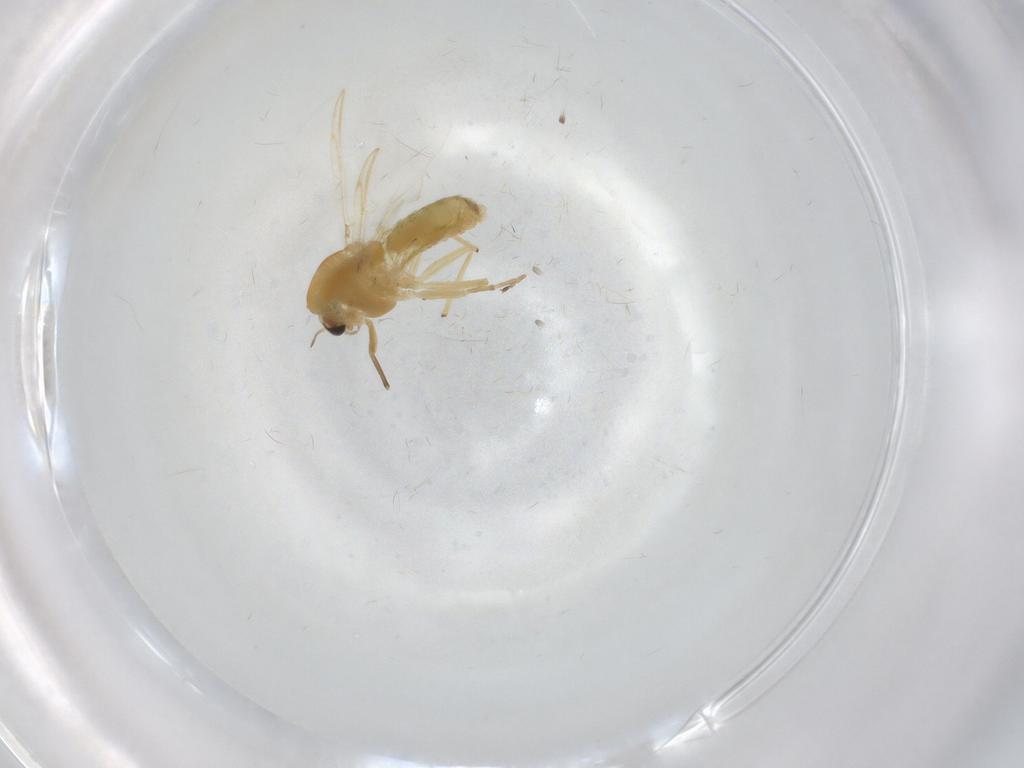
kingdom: Animalia
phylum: Arthropoda
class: Insecta
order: Diptera
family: Chironomidae
